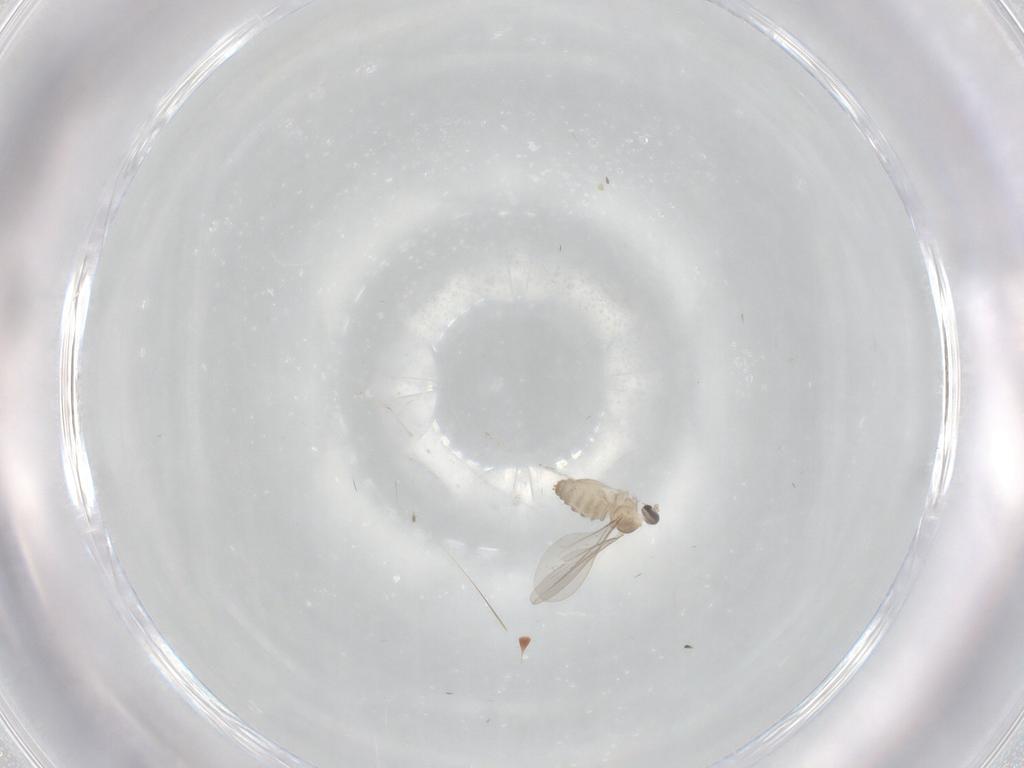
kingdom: Animalia
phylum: Arthropoda
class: Insecta
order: Diptera
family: Cecidomyiidae
